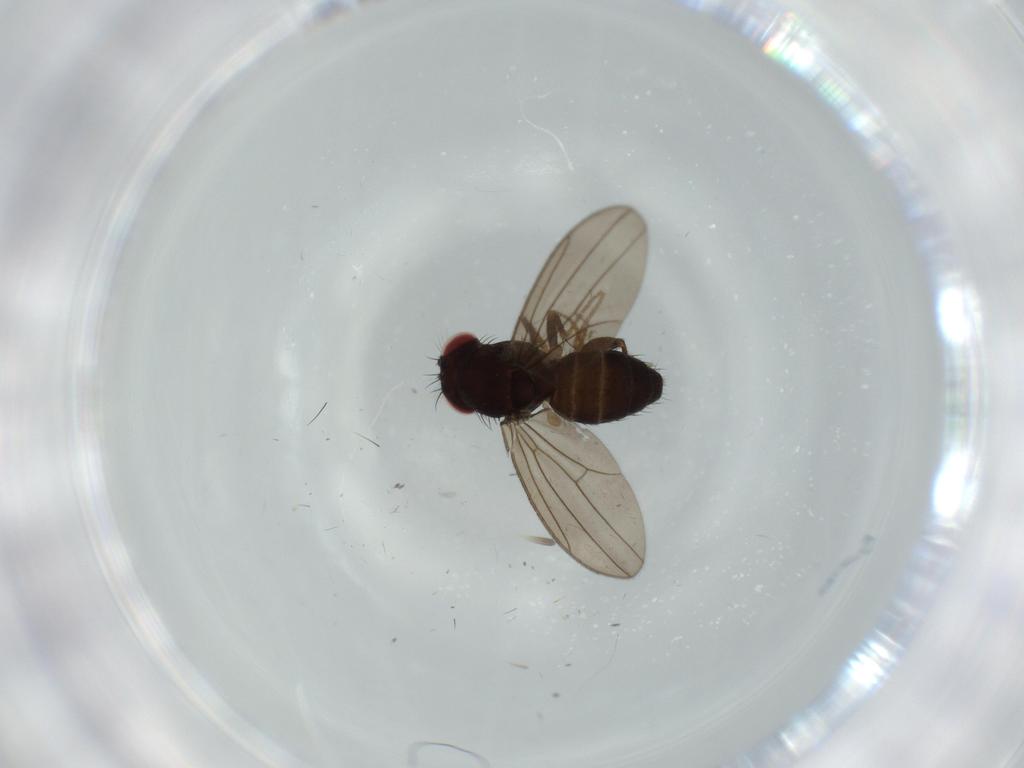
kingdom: Animalia
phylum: Arthropoda
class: Insecta
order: Diptera
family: Drosophilidae
